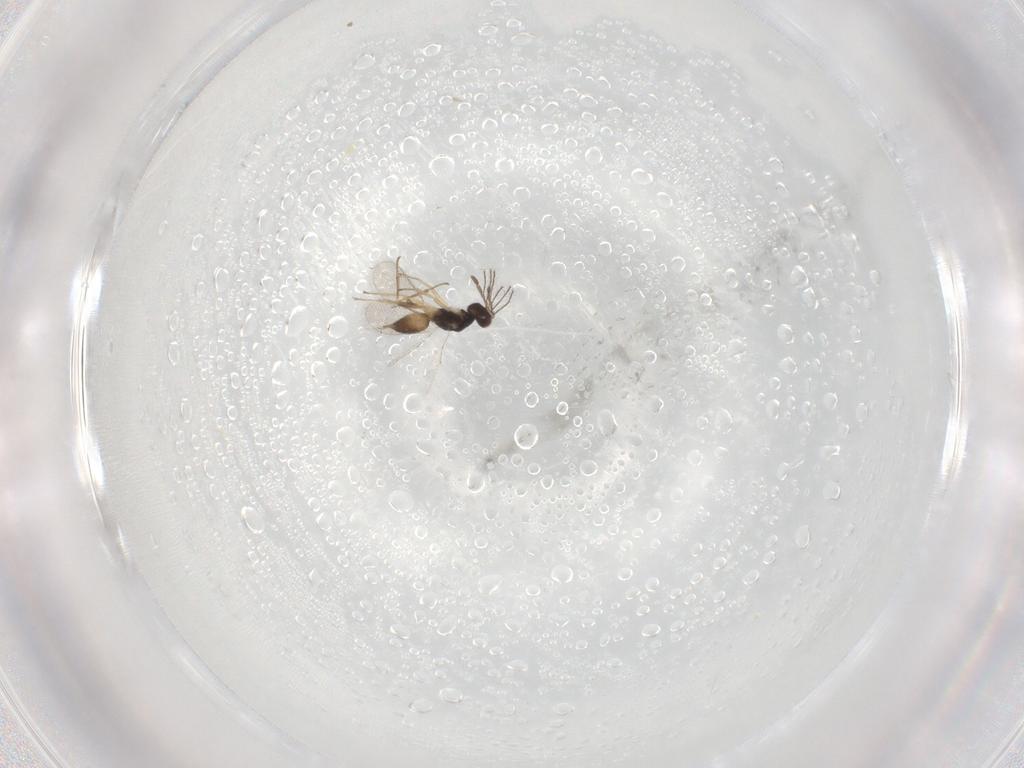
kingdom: Animalia
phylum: Arthropoda
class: Insecta
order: Hymenoptera
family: Eulophidae
